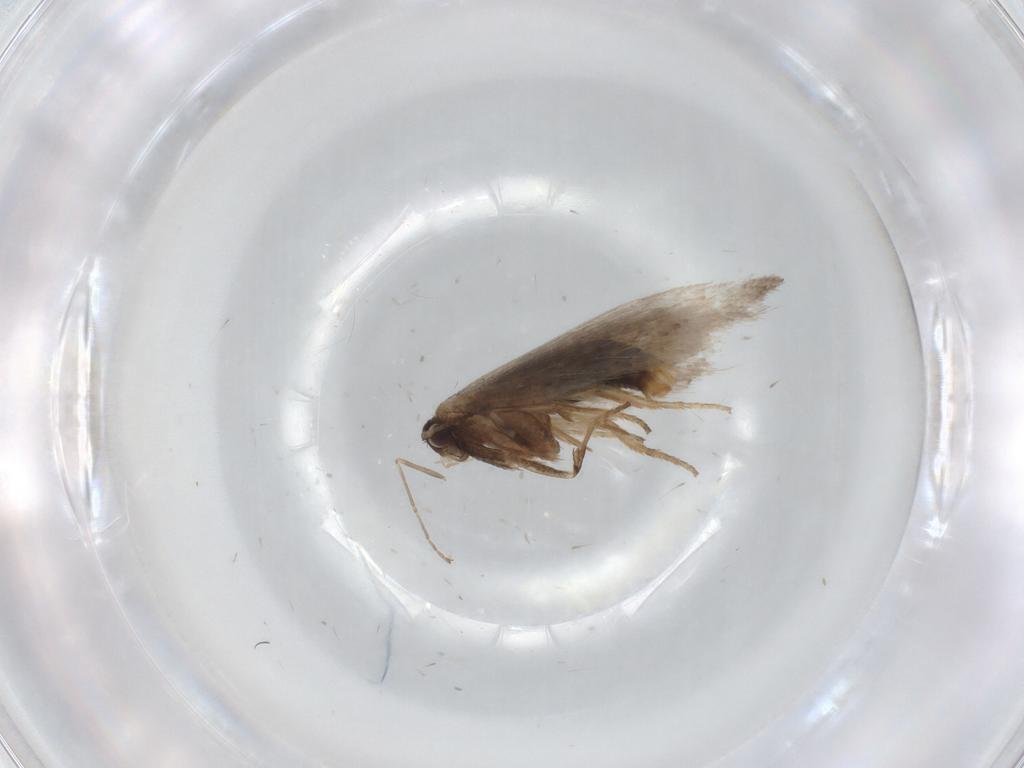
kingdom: Animalia
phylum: Arthropoda
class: Insecta
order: Lepidoptera
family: Nepticulidae
